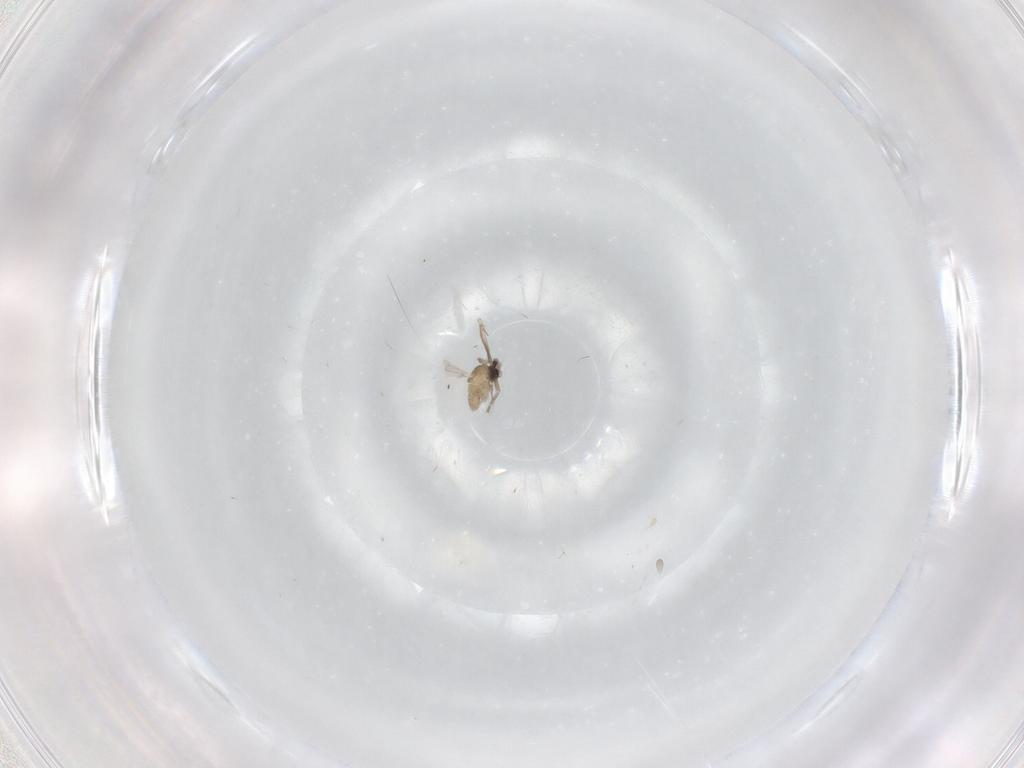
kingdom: Animalia
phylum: Arthropoda
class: Insecta
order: Diptera
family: Cecidomyiidae
